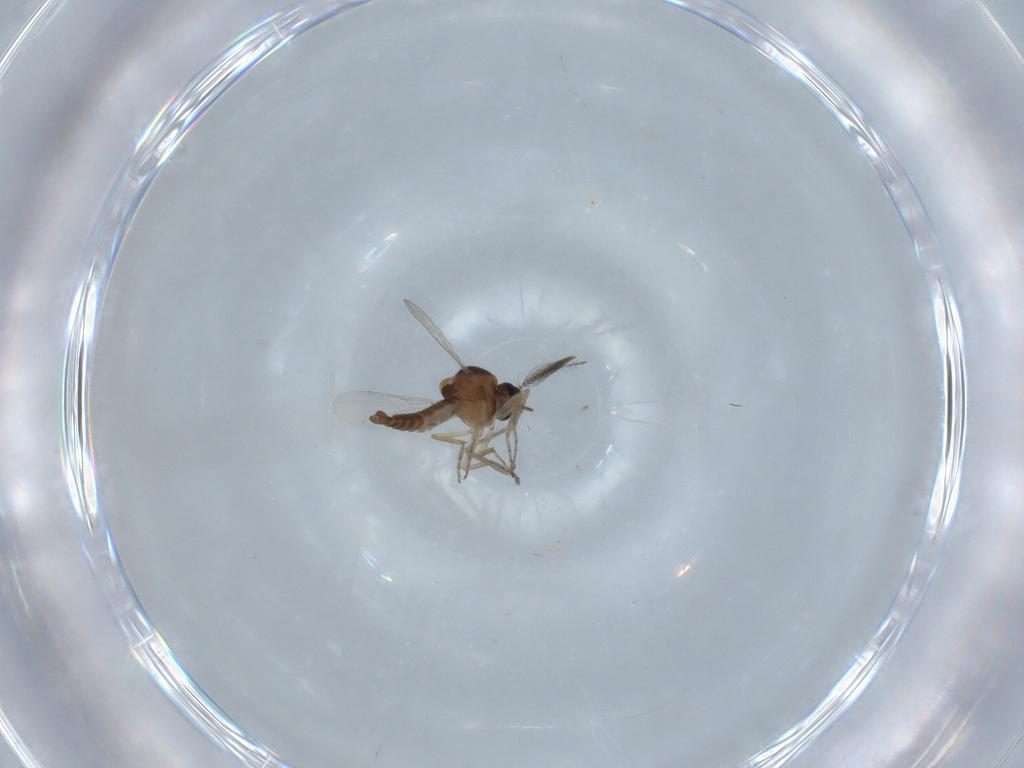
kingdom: Animalia
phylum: Arthropoda
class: Insecta
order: Diptera
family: Ceratopogonidae
